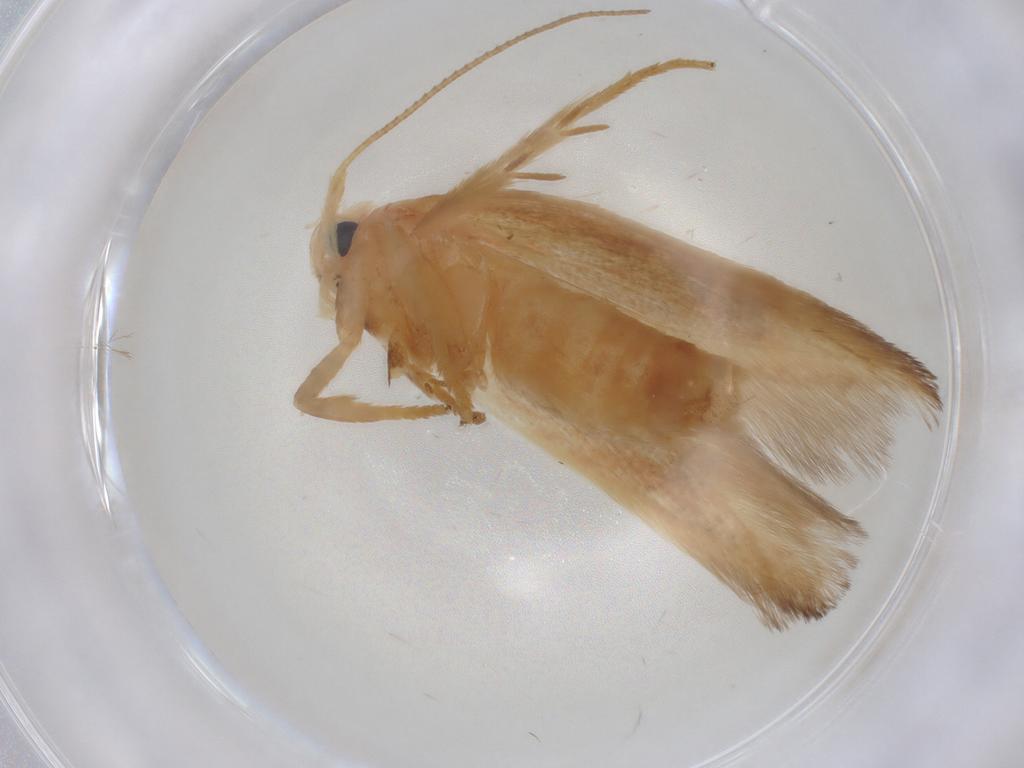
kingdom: Animalia
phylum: Arthropoda
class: Insecta
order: Lepidoptera
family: Geometridae
